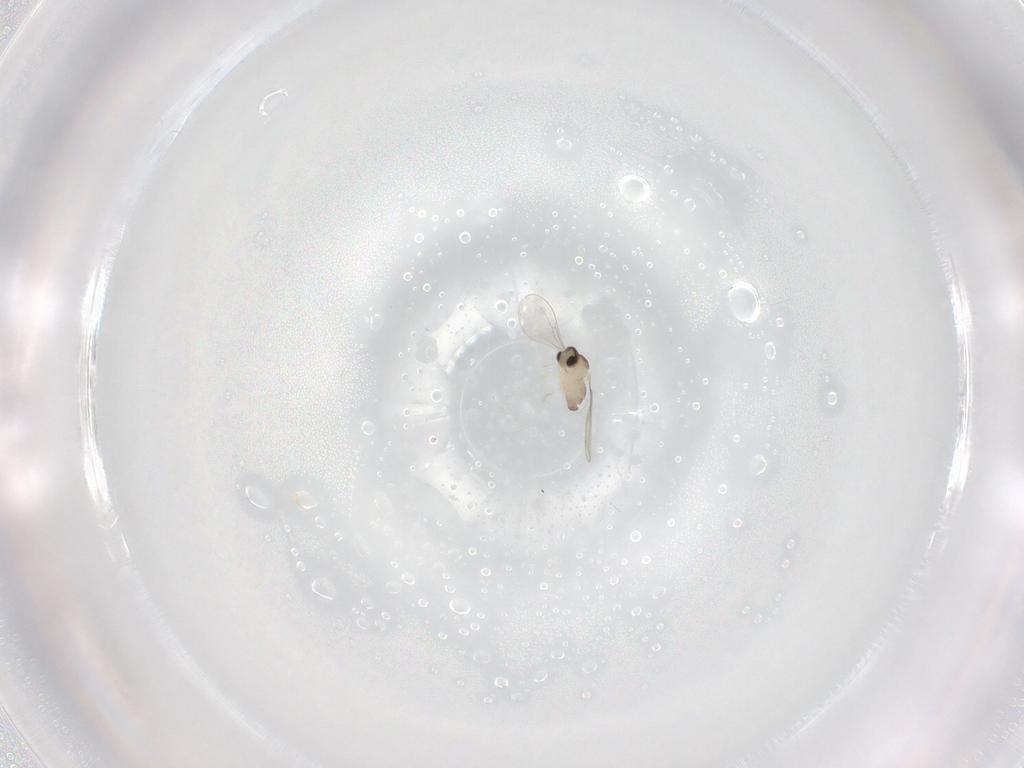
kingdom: Animalia
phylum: Arthropoda
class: Insecta
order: Diptera
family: Cecidomyiidae
